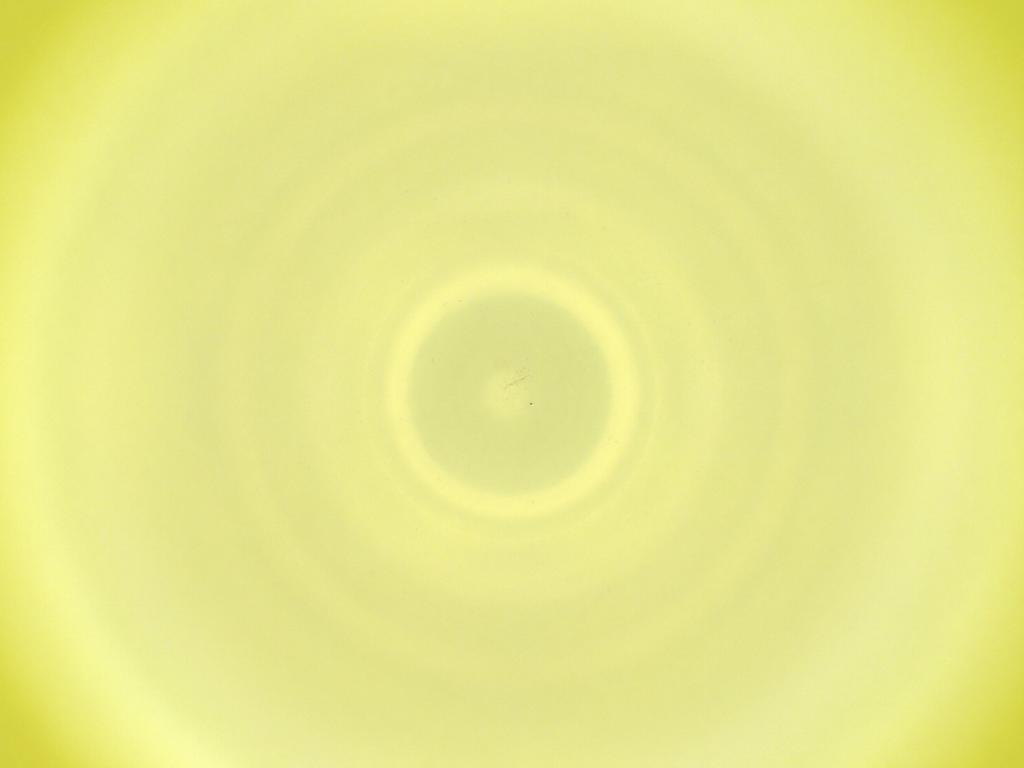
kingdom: Animalia
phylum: Arthropoda
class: Insecta
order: Diptera
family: Cecidomyiidae
